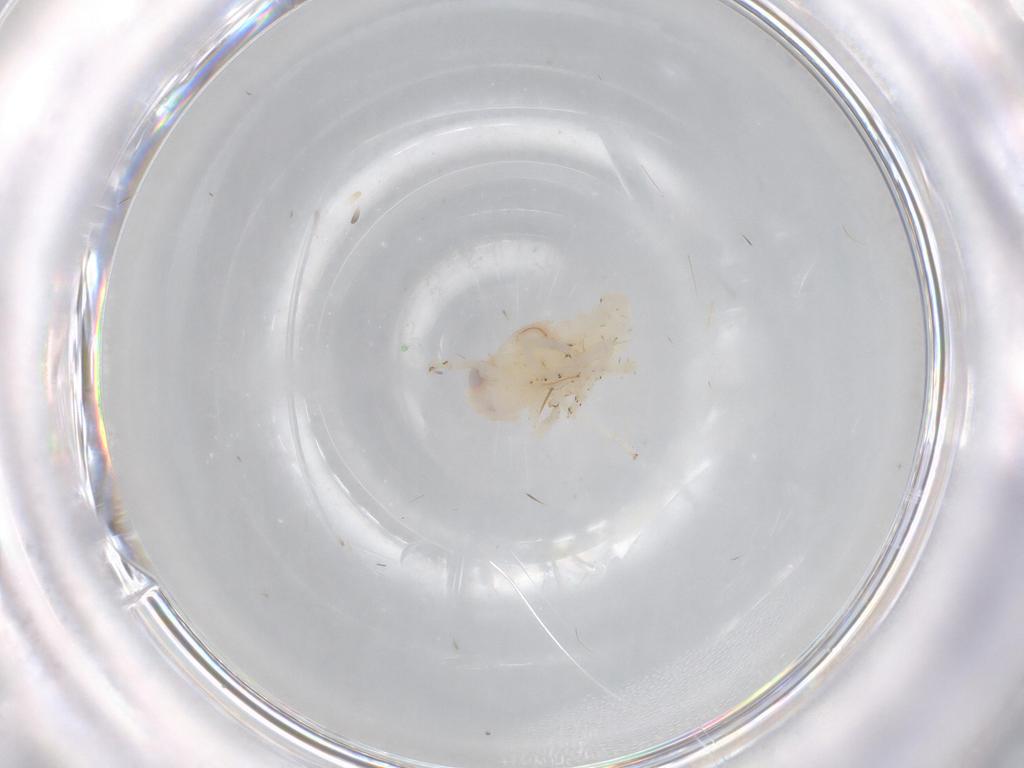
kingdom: Animalia
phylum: Arthropoda
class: Insecta
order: Hemiptera
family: Nogodinidae
